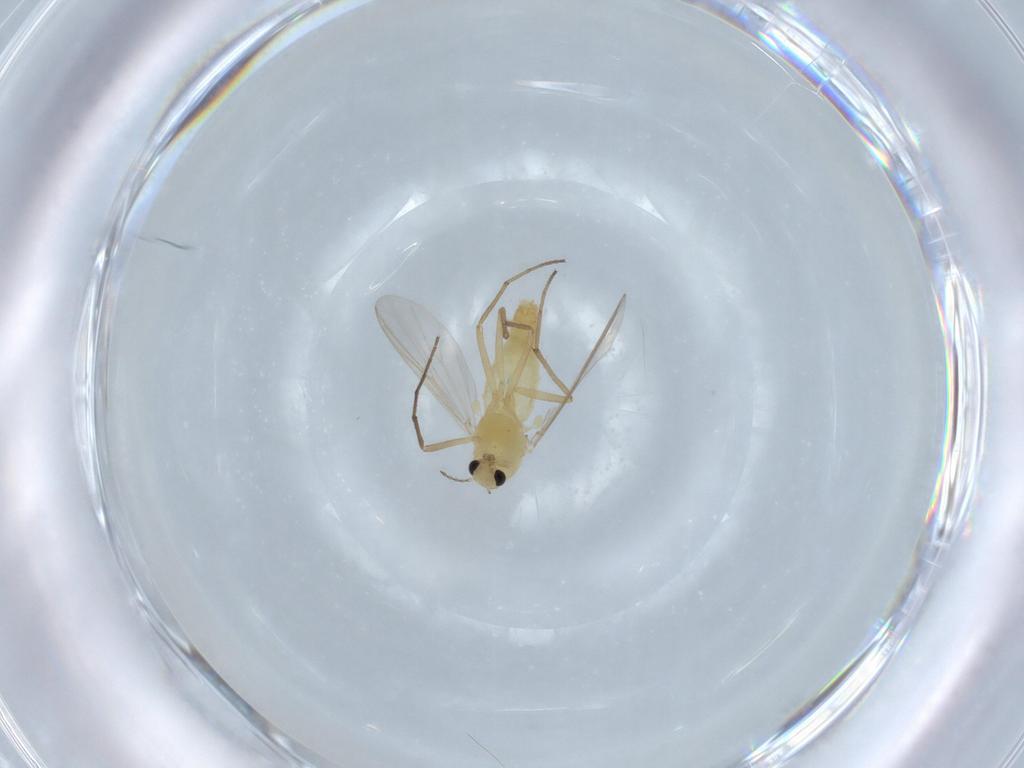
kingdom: Animalia
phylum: Arthropoda
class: Insecta
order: Diptera
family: Chironomidae
